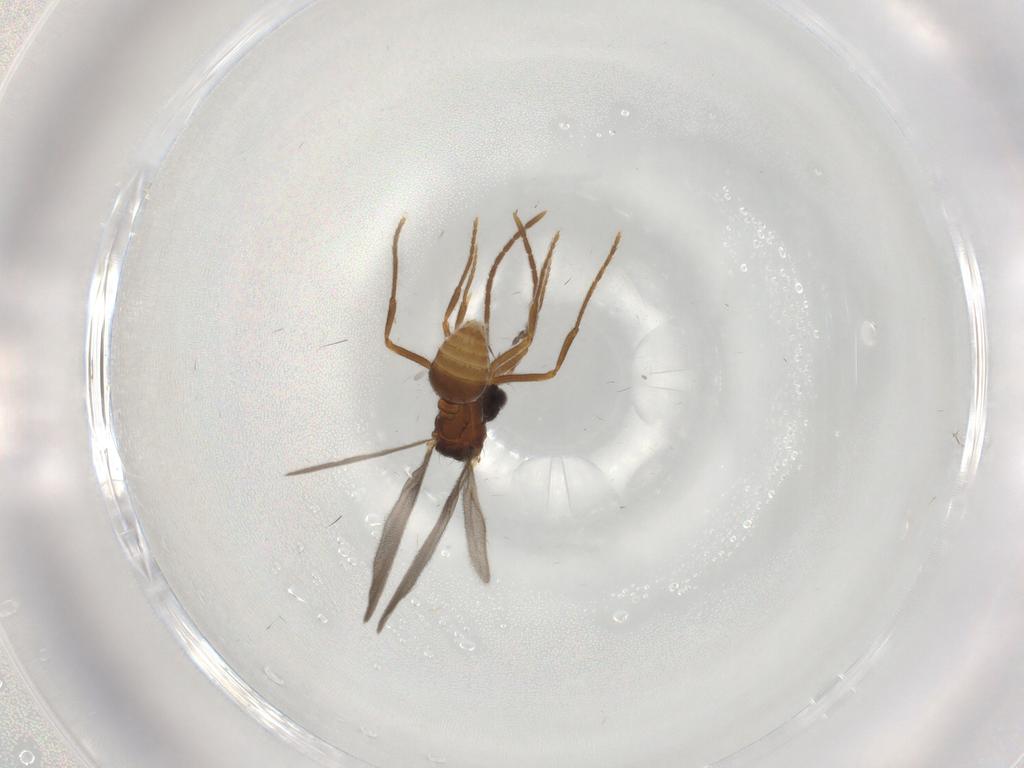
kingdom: Animalia
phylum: Arthropoda
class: Insecta
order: Hymenoptera
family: Formicidae
